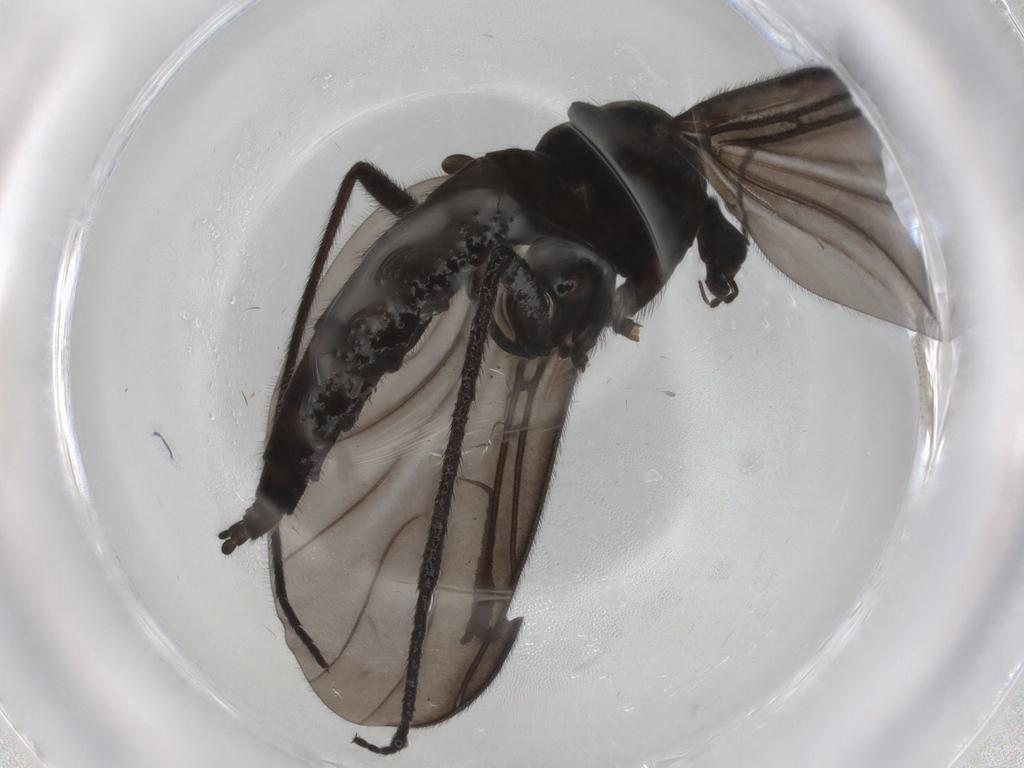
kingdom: Animalia
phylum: Arthropoda
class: Insecta
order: Diptera
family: Sciaridae
